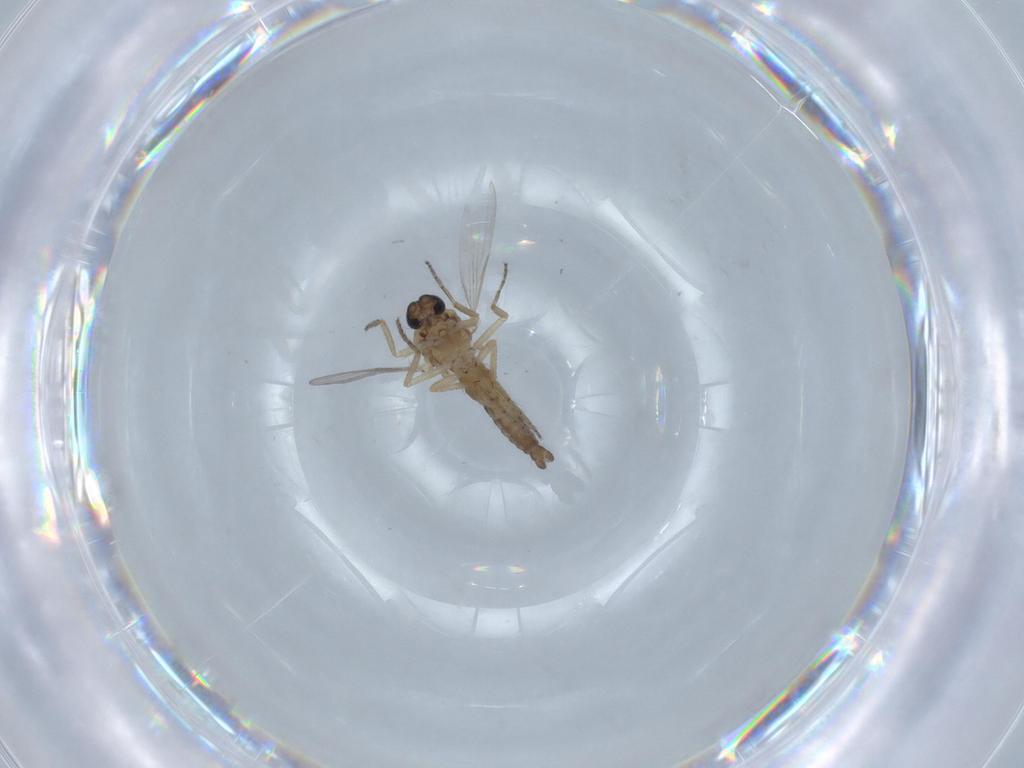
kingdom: Animalia
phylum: Arthropoda
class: Insecta
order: Diptera
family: Ceratopogonidae
